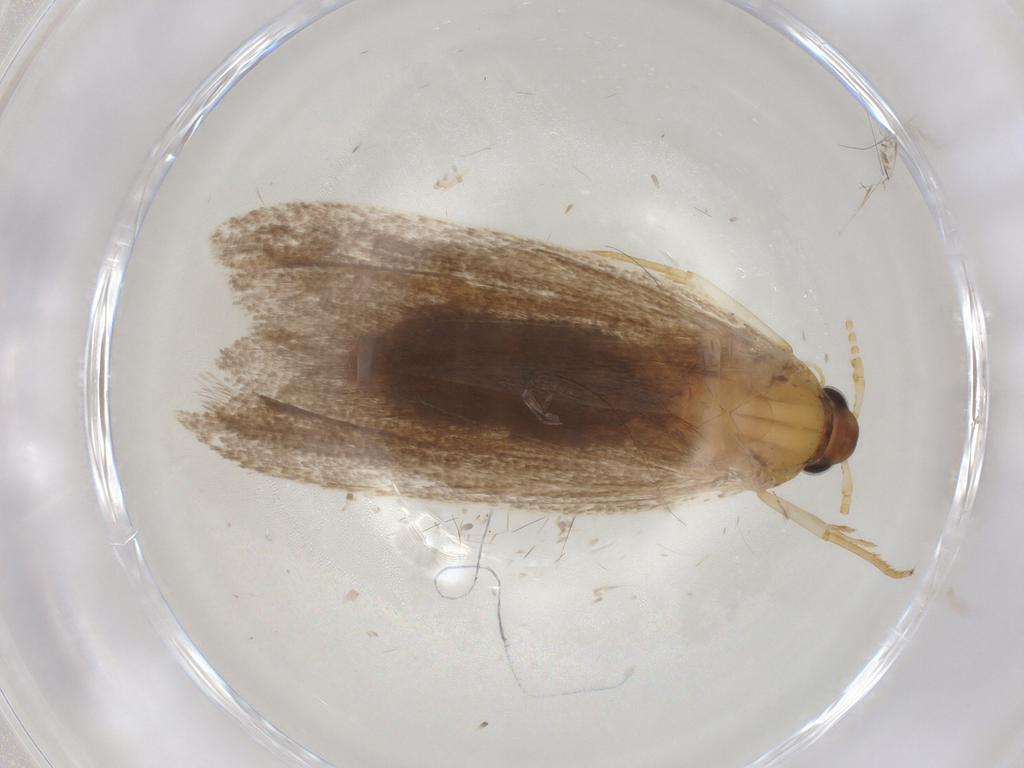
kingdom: Animalia
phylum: Arthropoda
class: Insecta
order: Lepidoptera
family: Lecithoceridae
